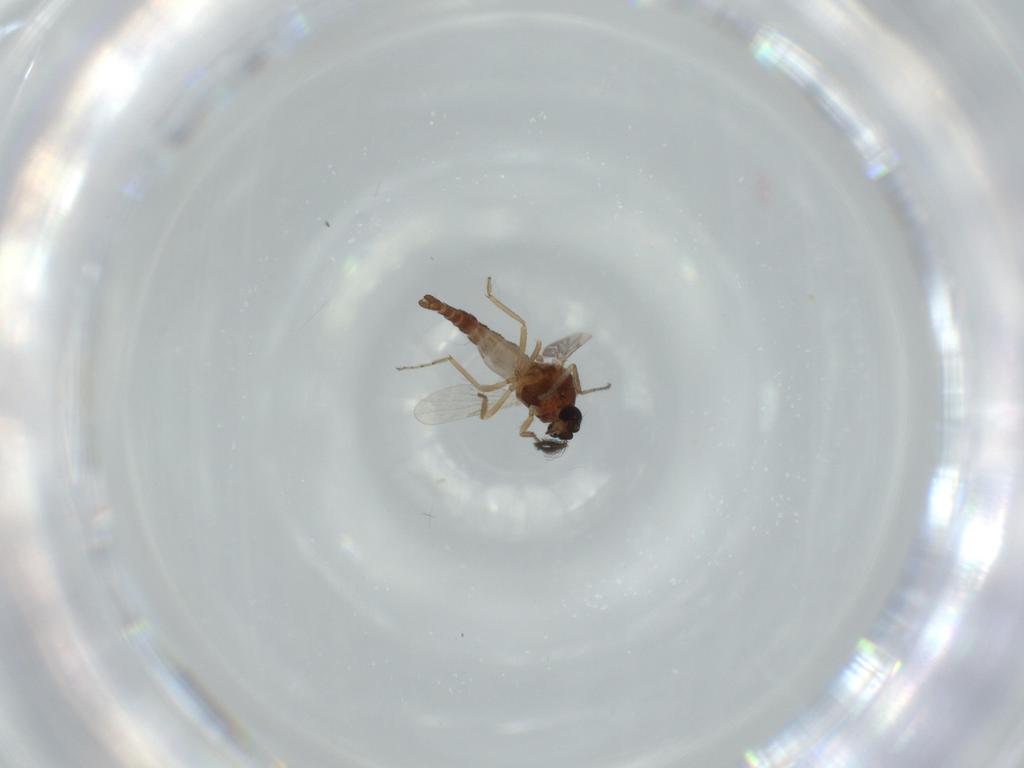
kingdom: Animalia
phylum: Arthropoda
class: Insecta
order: Diptera
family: Ceratopogonidae
